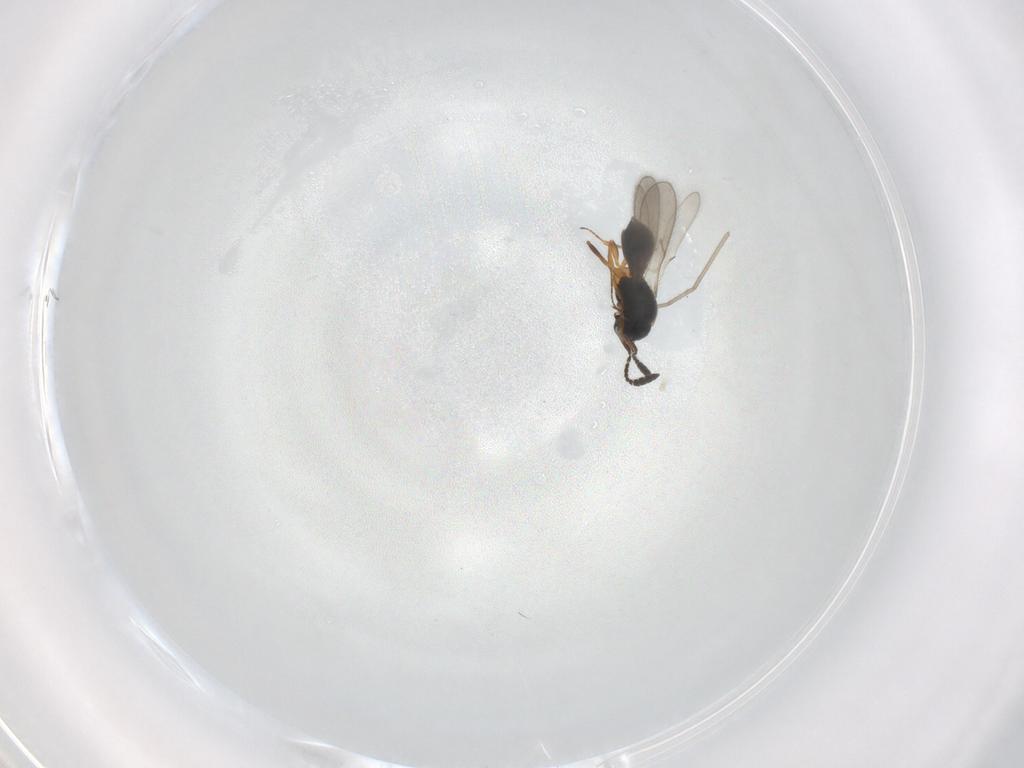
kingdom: Animalia
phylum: Arthropoda
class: Insecta
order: Hymenoptera
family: Scelionidae
